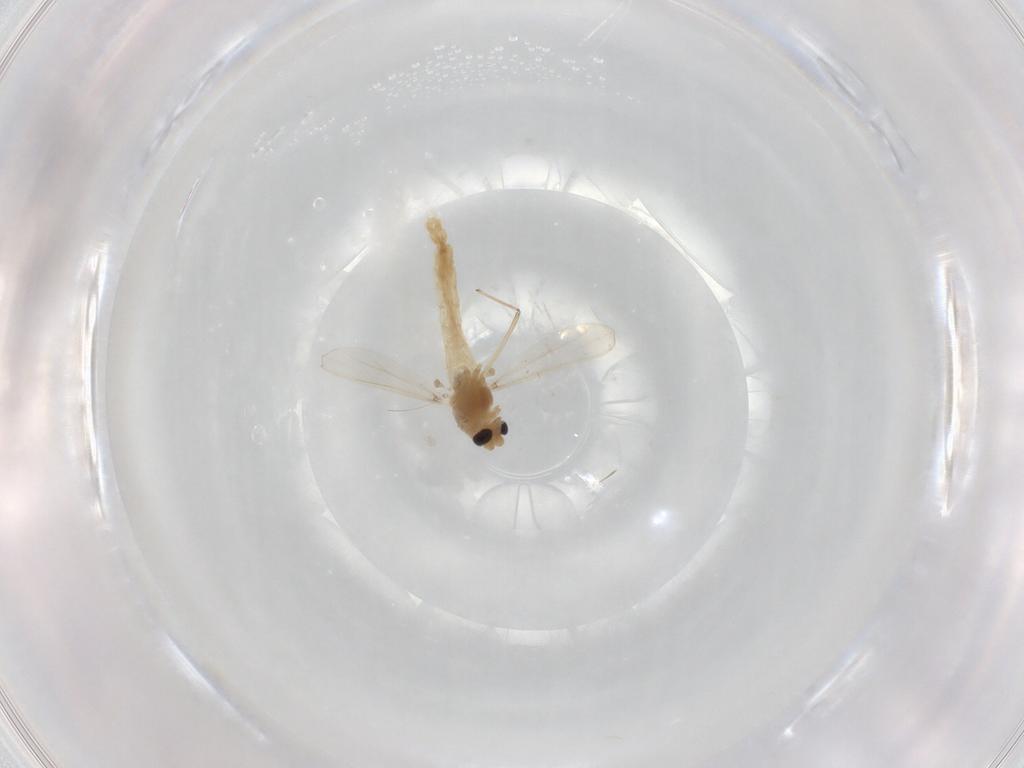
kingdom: Animalia
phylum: Arthropoda
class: Insecta
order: Diptera
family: Chironomidae
